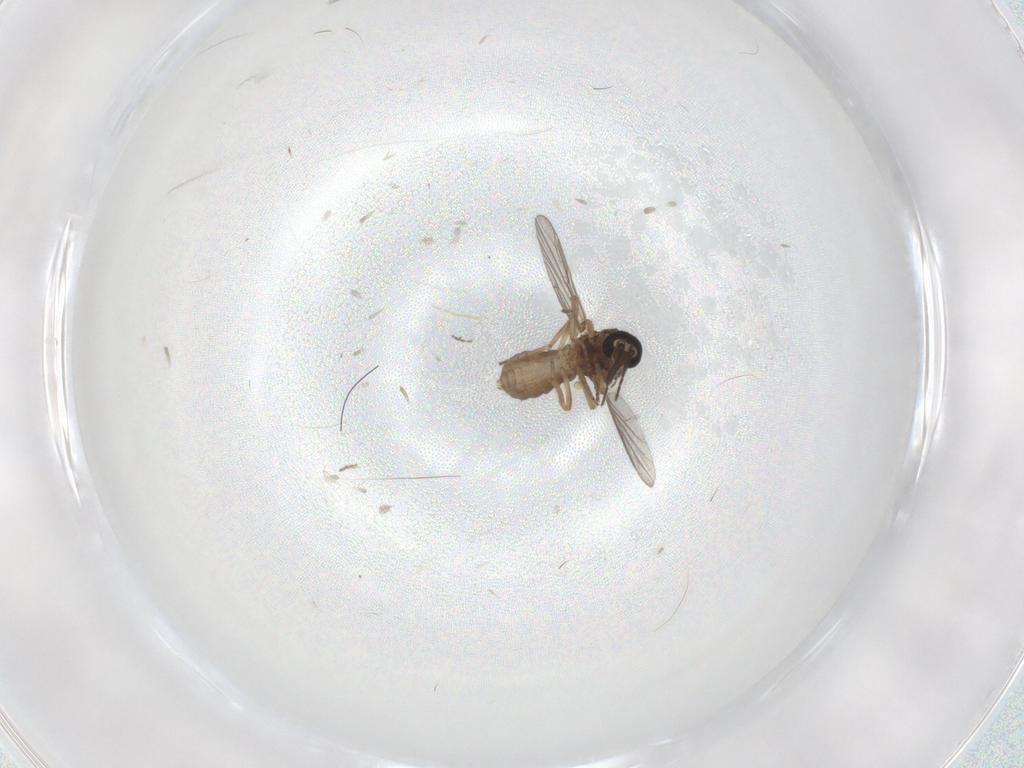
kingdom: Animalia
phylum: Arthropoda
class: Insecta
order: Diptera
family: Ceratopogonidae
